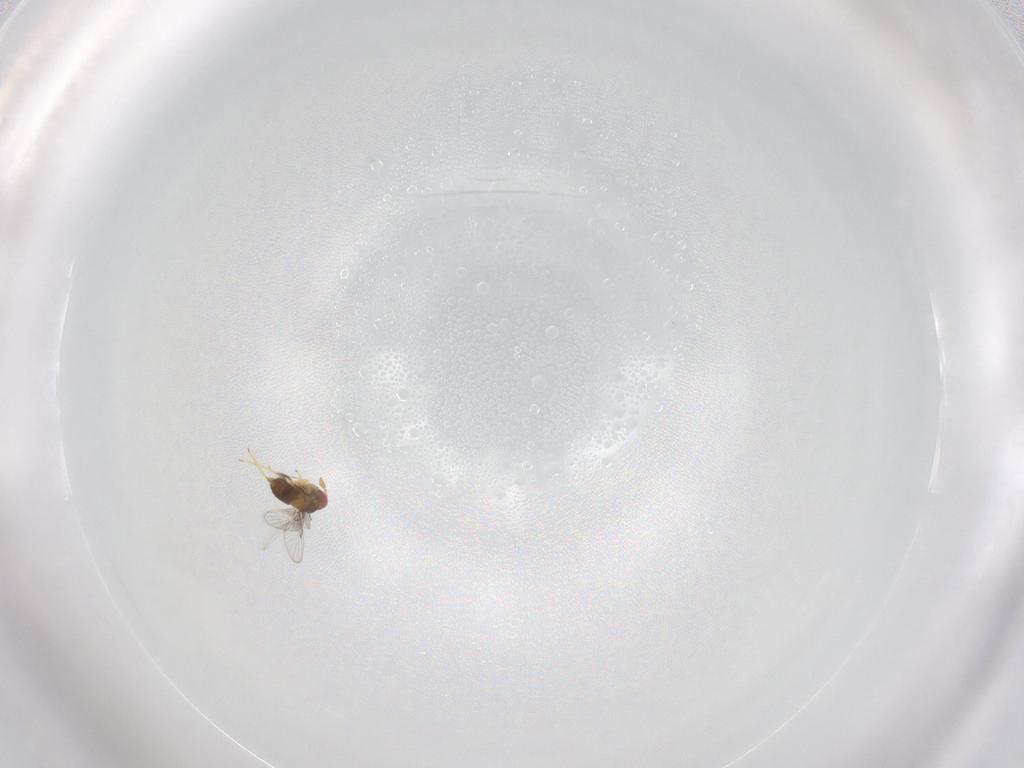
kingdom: Animalia
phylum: Arthropoda
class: Insecta
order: Hymenoptera
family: Trichogrammatidae
